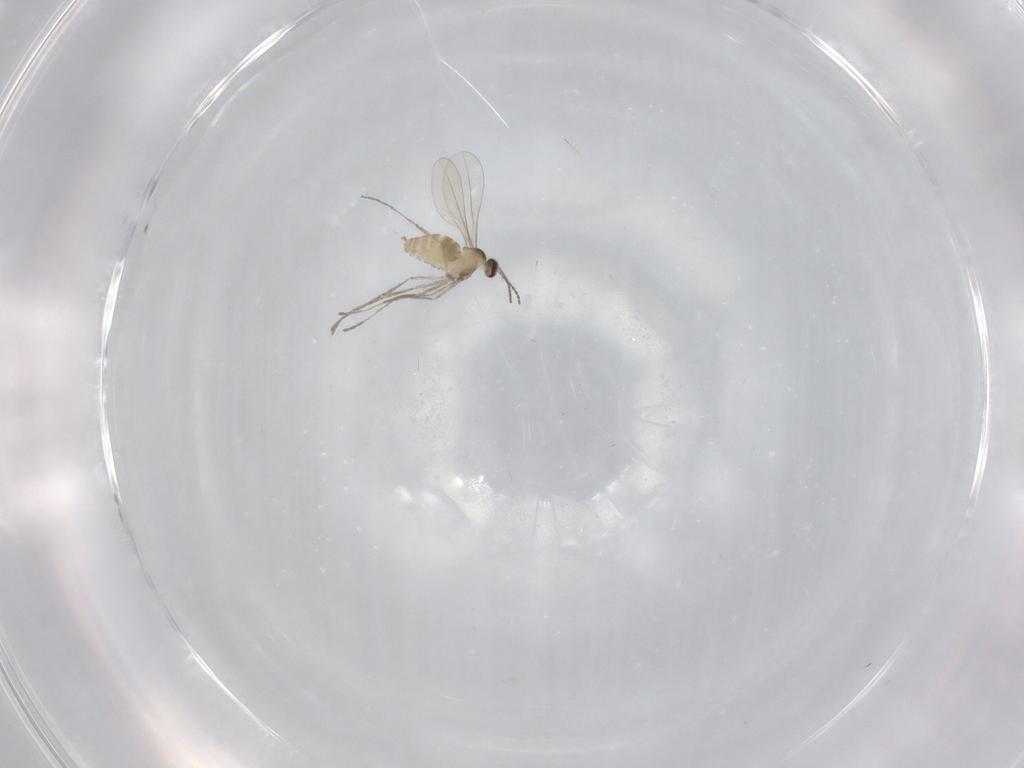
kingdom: Animalia
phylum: Arthropoda
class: Insecta
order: Diptera
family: Cecidomyiidae
